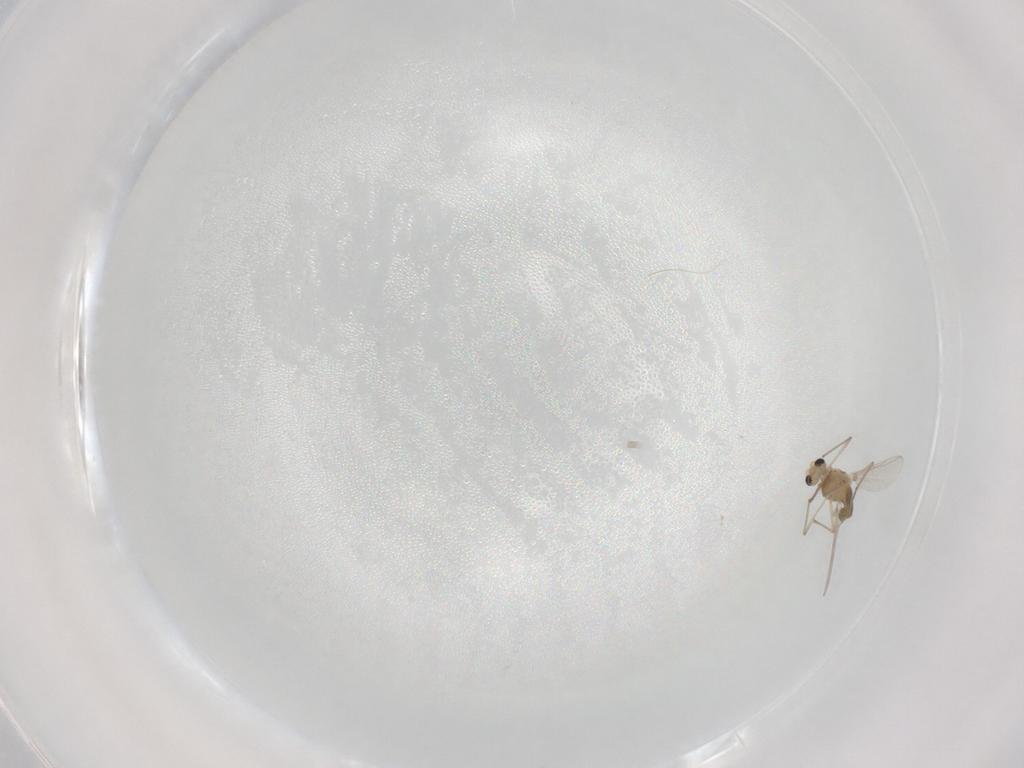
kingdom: Animalia
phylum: Arthropoda
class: Insecta
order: Diptera
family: Chironomidae
